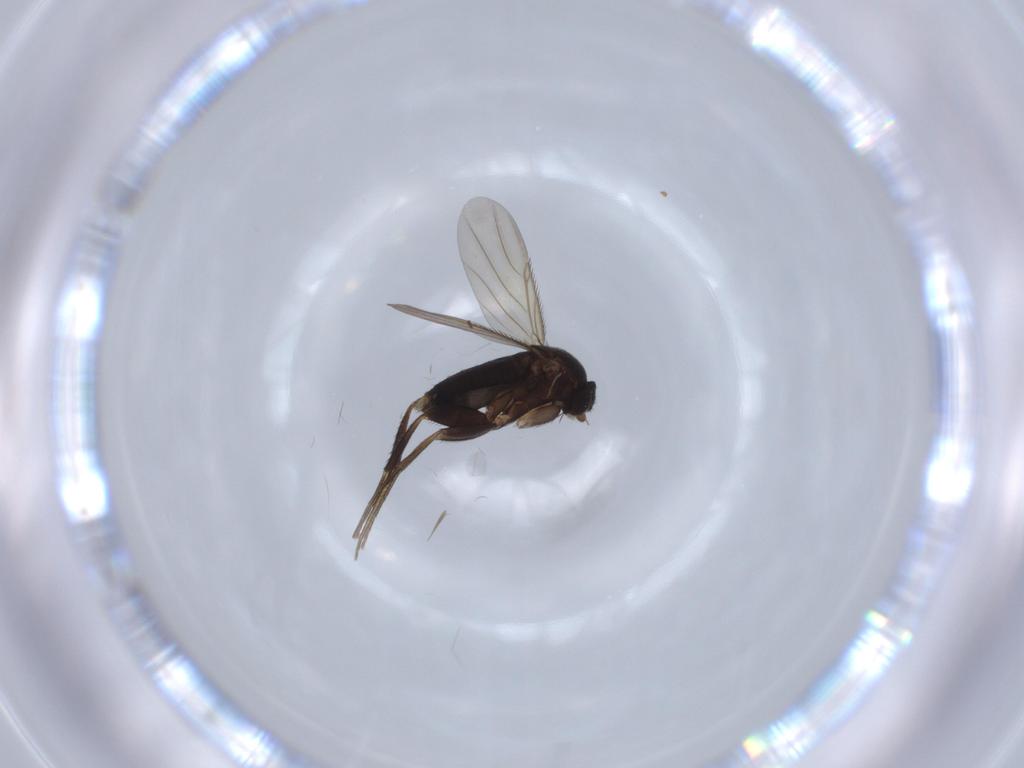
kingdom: Animalia
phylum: Arthropoda
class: Insecta
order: Diptera
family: Phoridae
